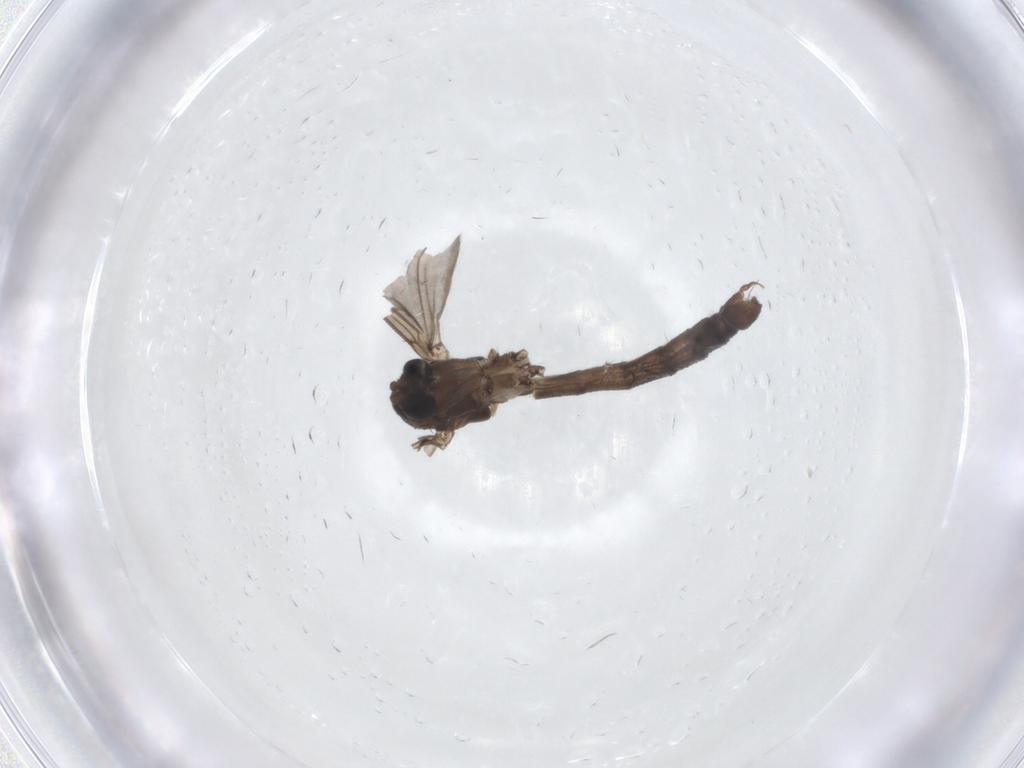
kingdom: Animalia
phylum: Arthropoda
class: Insecta
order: Diptera
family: Mycetophilidae
